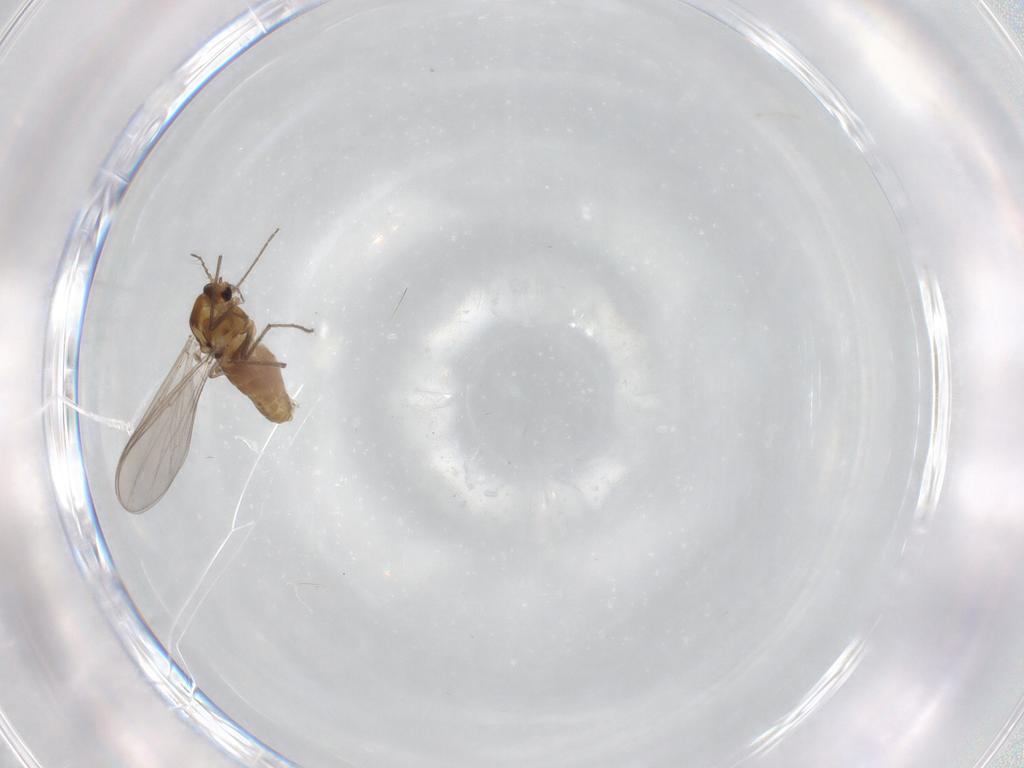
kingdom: Animalia
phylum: Arthropoda
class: Insecta
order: Diptera
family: Chironomidae
